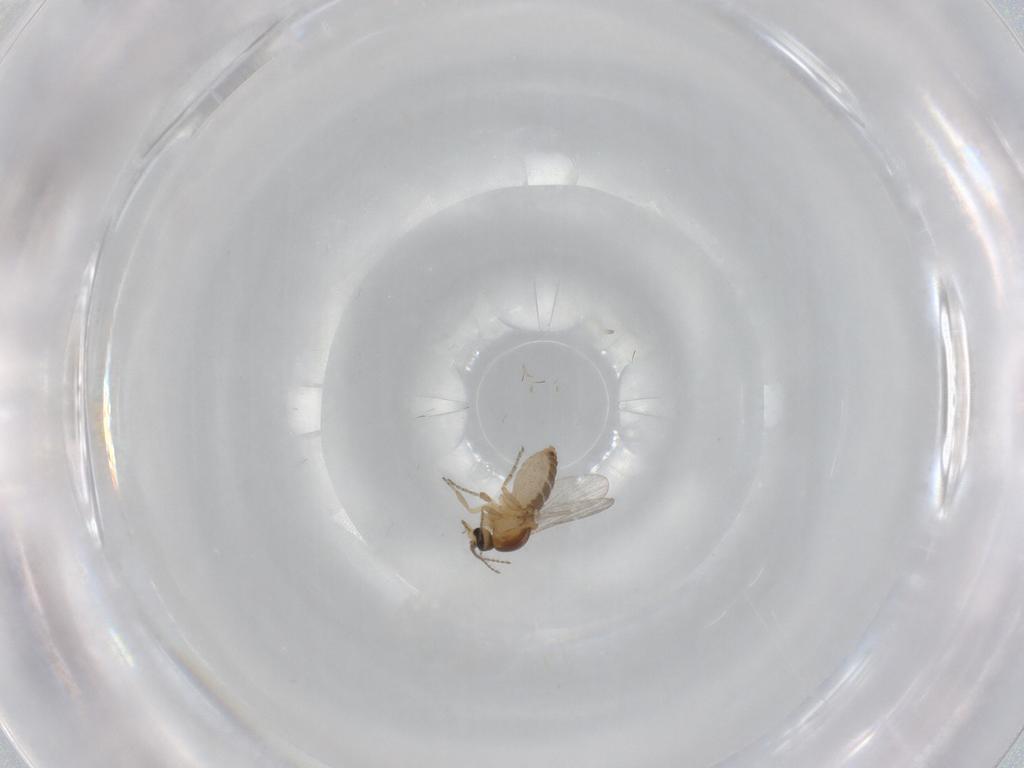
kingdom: Animalia
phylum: Arthropoda
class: Insecta
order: Diptera
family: Ceratopogonidae
